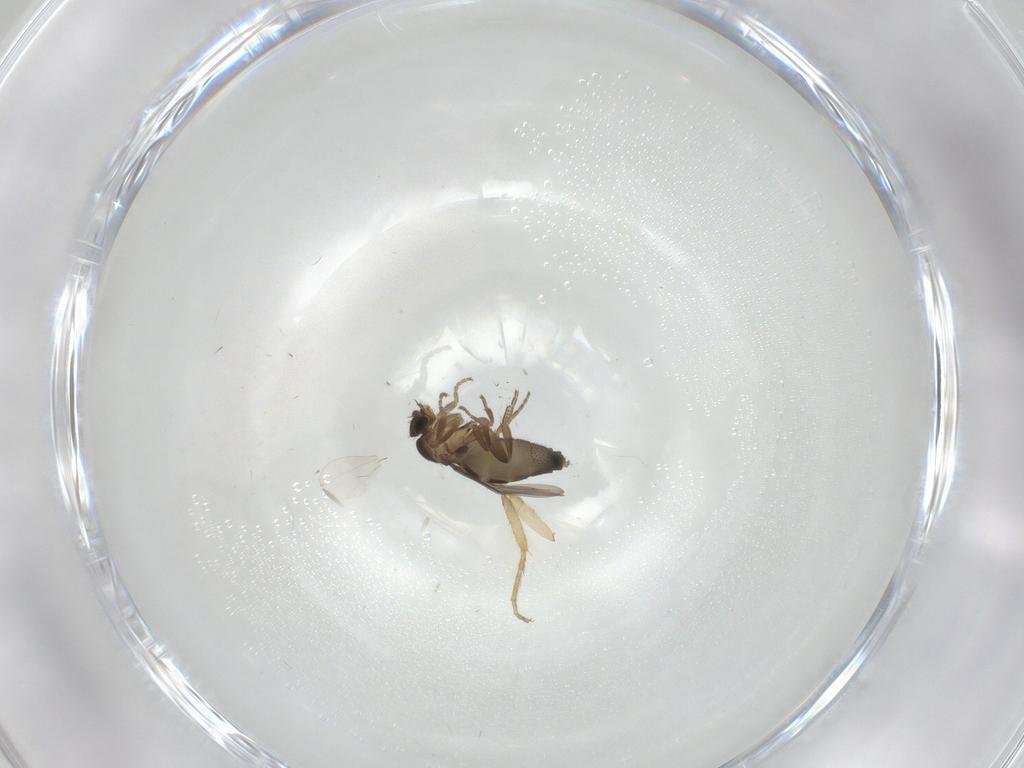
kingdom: Animalia
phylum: Arthropoda
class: Insecta
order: Diptera
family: Phoridae
